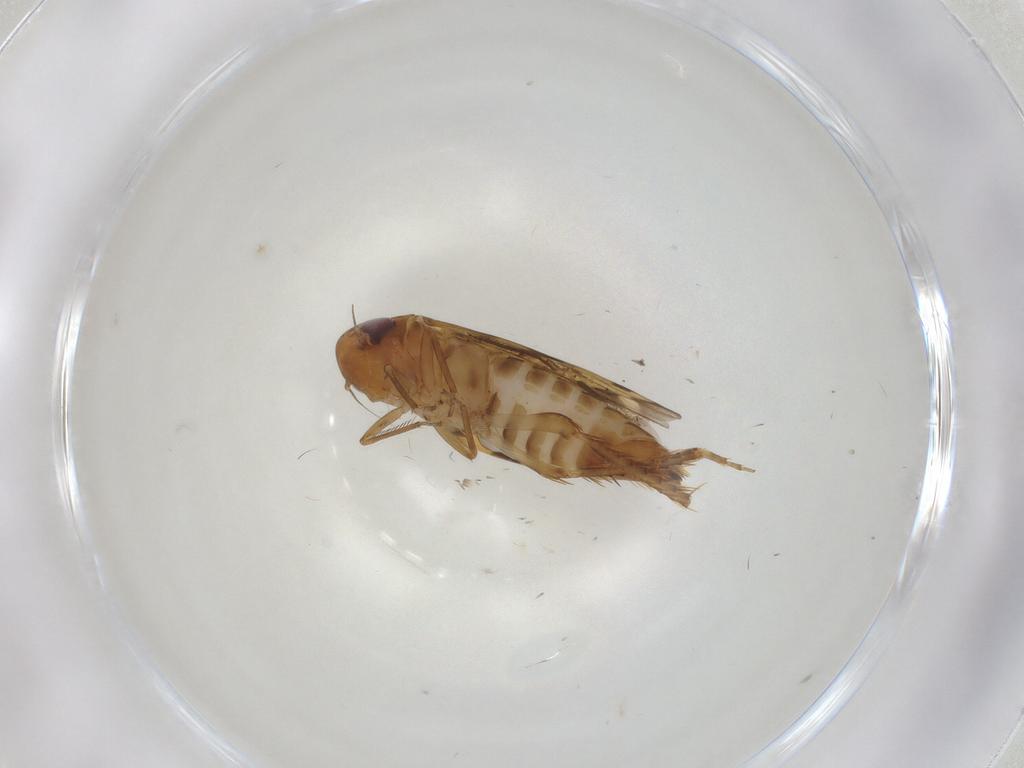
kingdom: Animalia
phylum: Arthropoda
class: Insecta
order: Hemiptera
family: Cicadellidae
